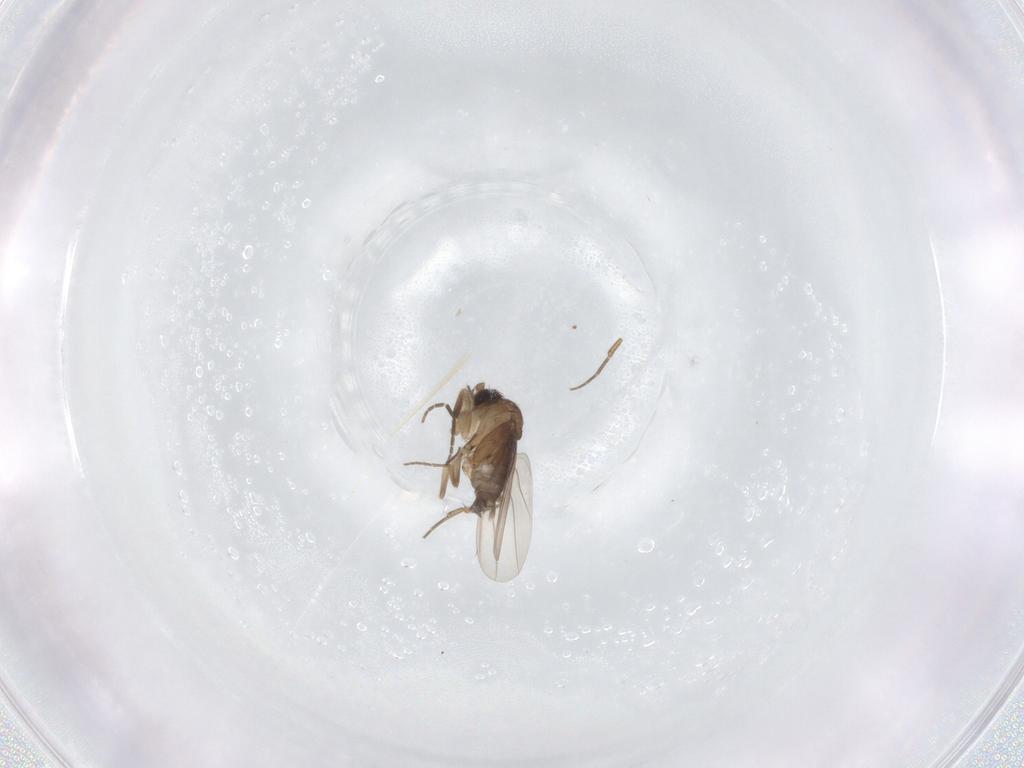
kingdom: Animalia
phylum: Arthropoda
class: Insecta
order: Diptera
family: Phoridae
